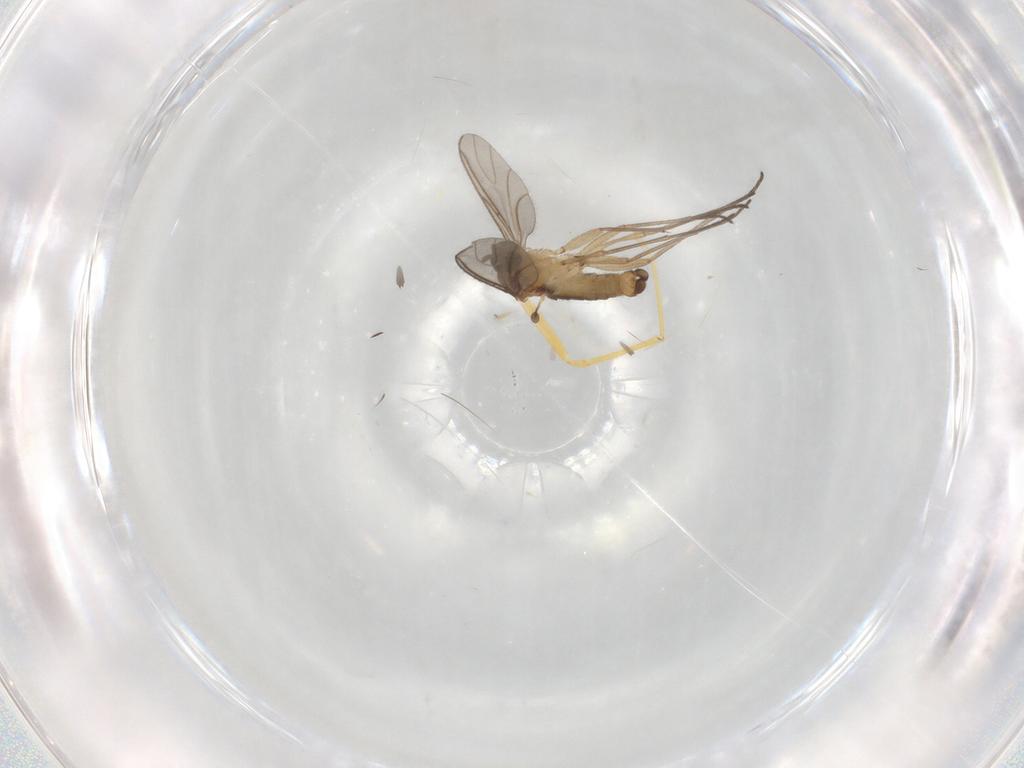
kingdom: Animalia
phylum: Arthropoda
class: Insecta
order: Diptera
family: Sciaridae
